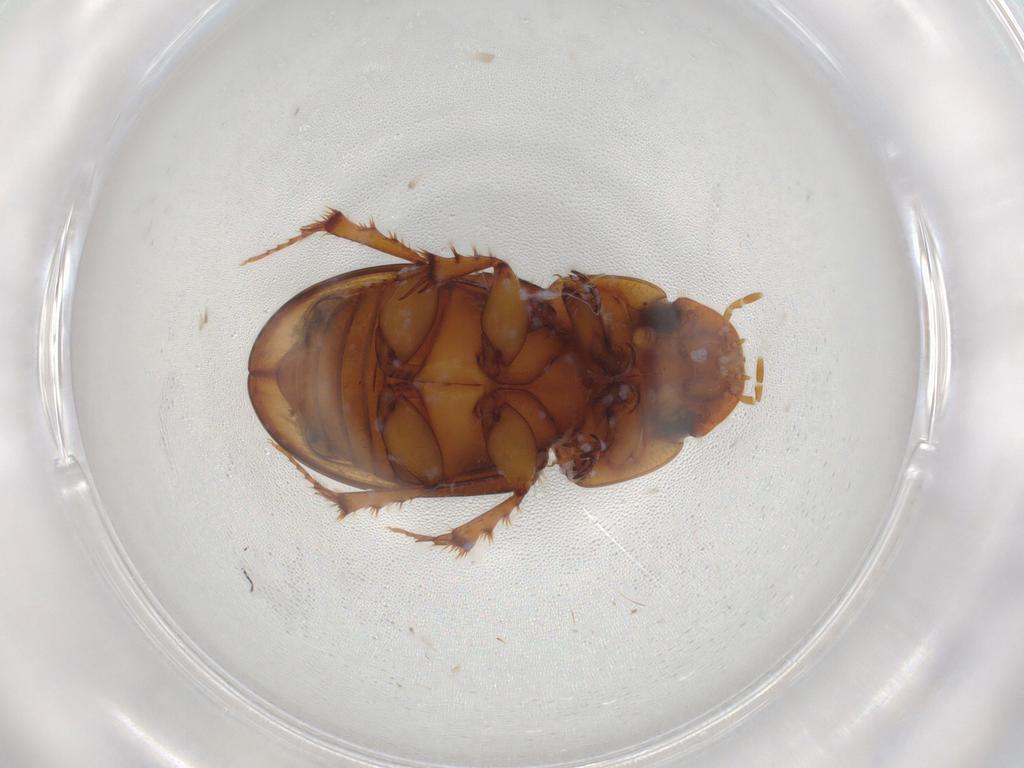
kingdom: Animalia
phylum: Arthropoda
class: Insecta
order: Coleoptera
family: Scarabaeidae
